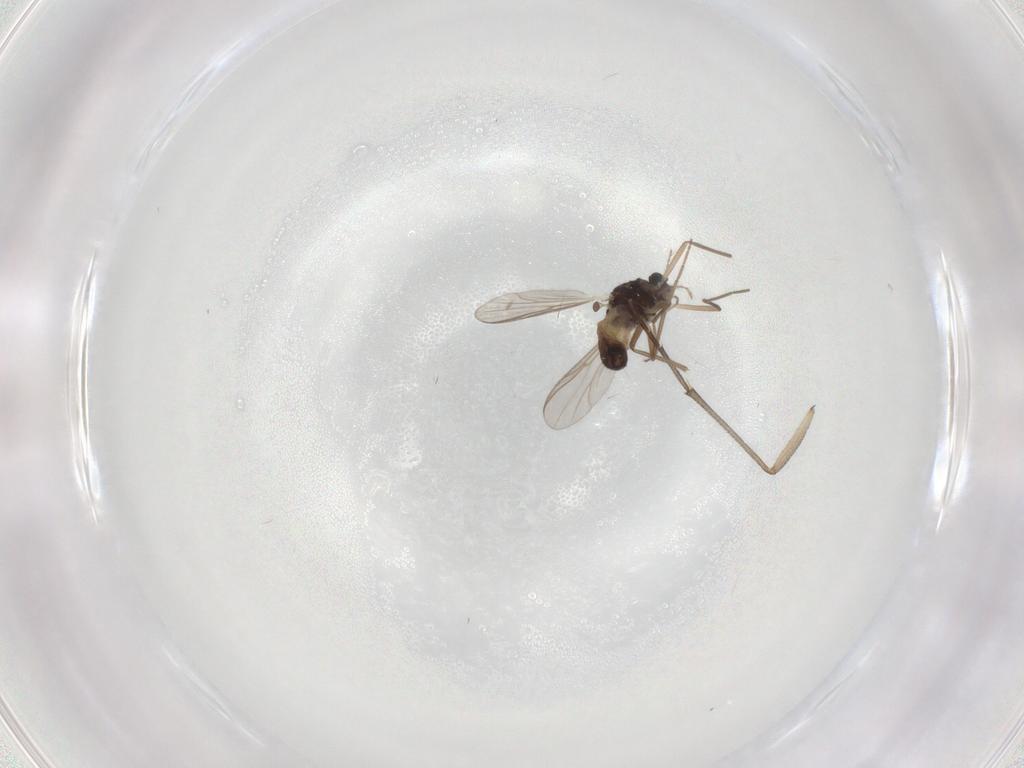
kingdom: Animalia
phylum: Arthropoda
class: Insecta
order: Diptera
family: Chironomidae
